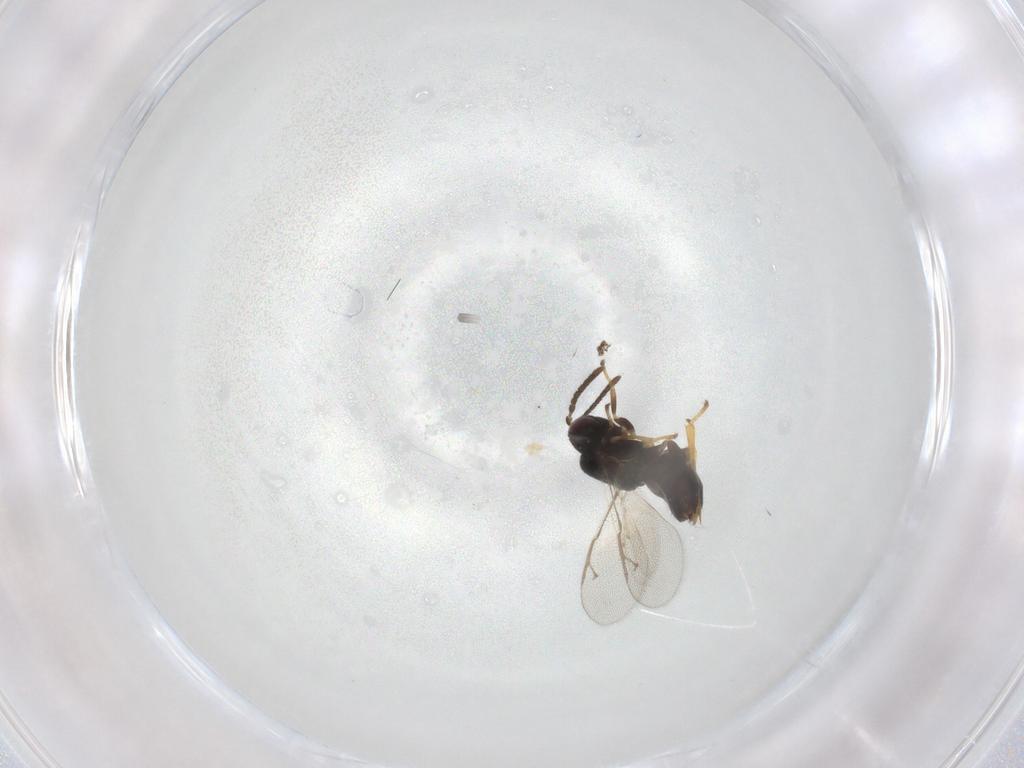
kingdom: Animalia
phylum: Arthropoda
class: Insecta
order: Hymenoptera
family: Tanaostigmatidae
